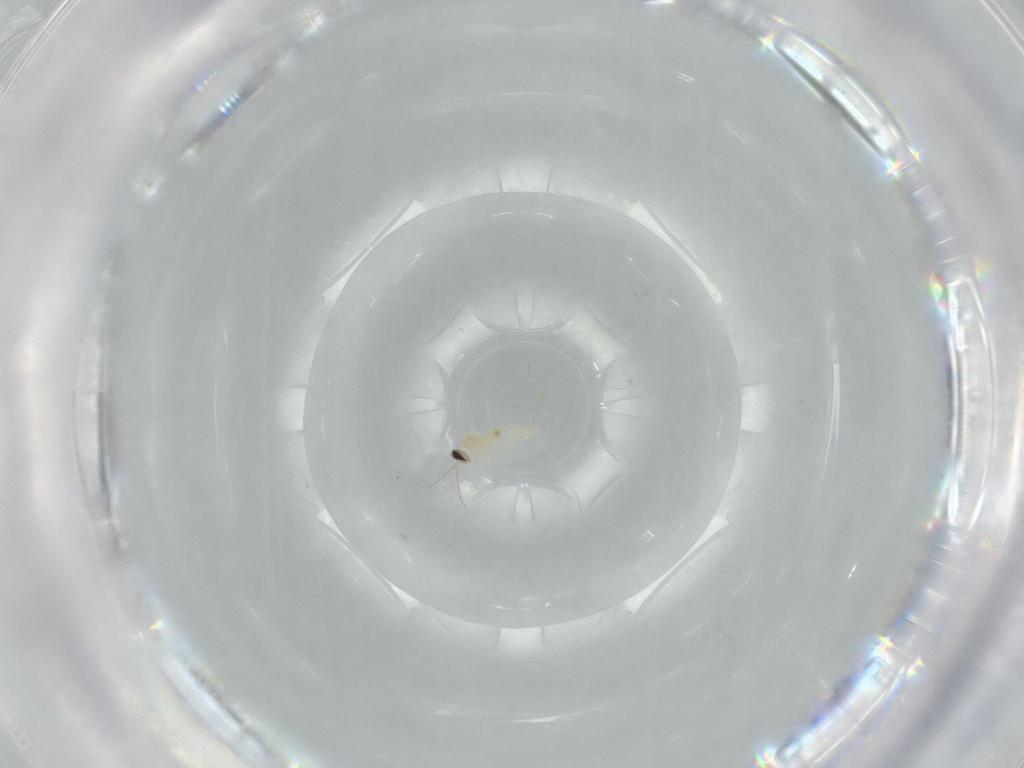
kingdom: Animalia
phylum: Arthropoda
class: Insecta
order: Diptera
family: Cecidomyiidae
